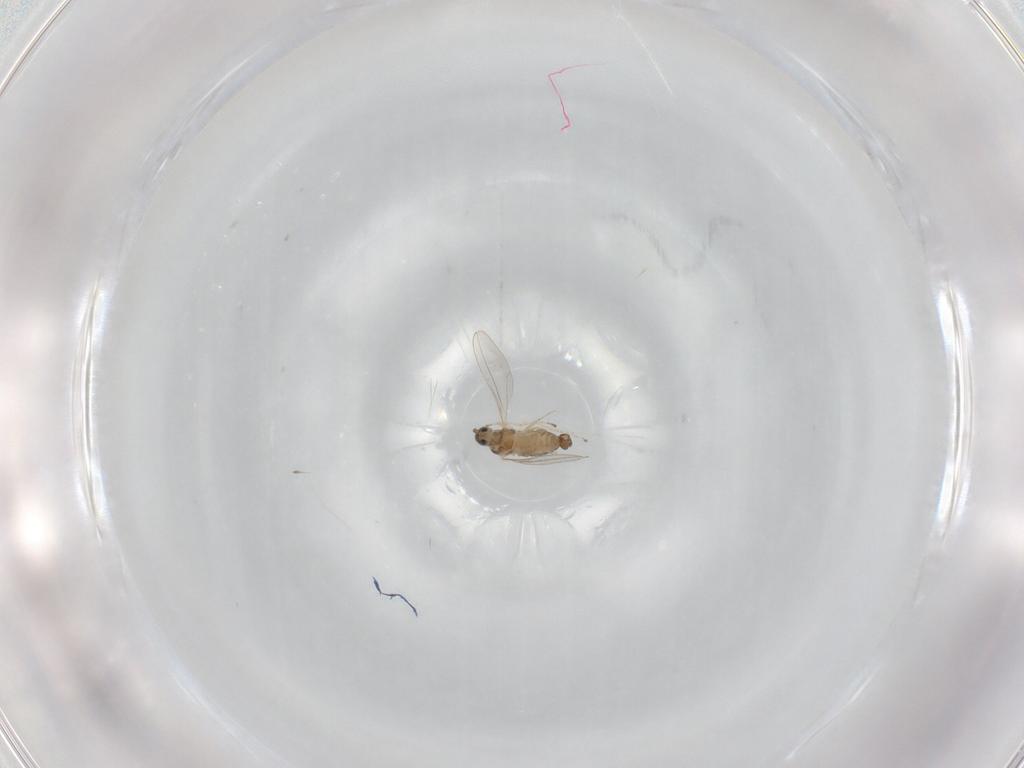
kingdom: Animalia
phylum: Arthropoda
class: Insecta
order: Diptera
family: Cecidomyiidae
